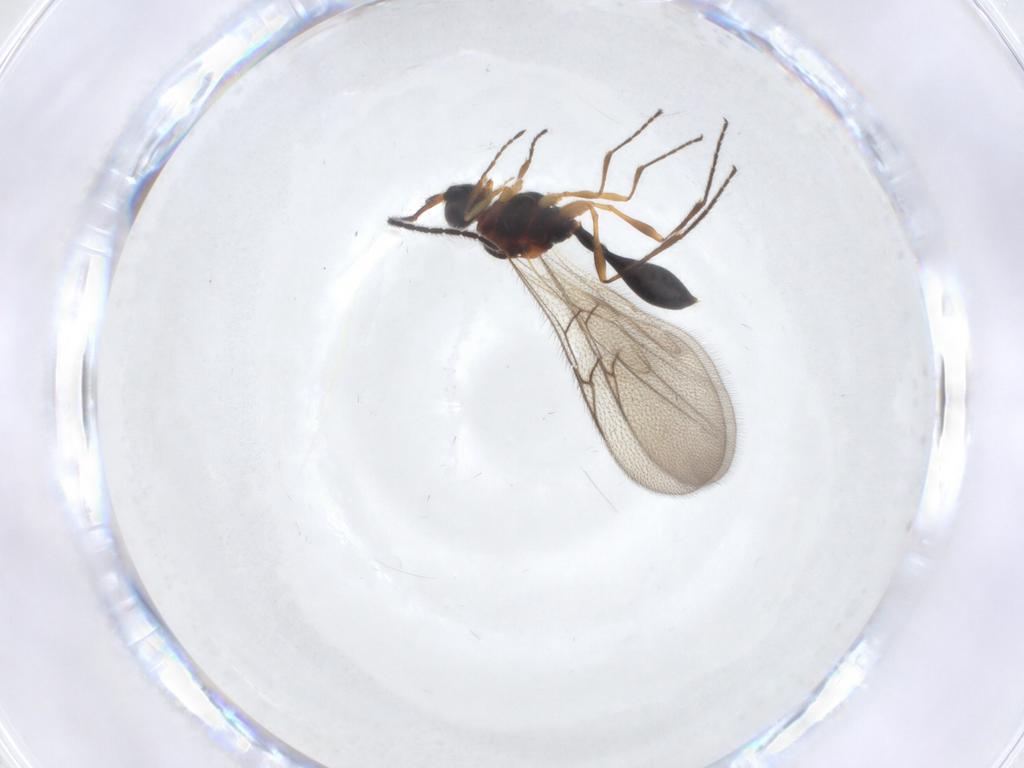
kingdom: Animalia
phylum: Arthropoda
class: Insecta
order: Hymenoptera
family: Diapriidae
